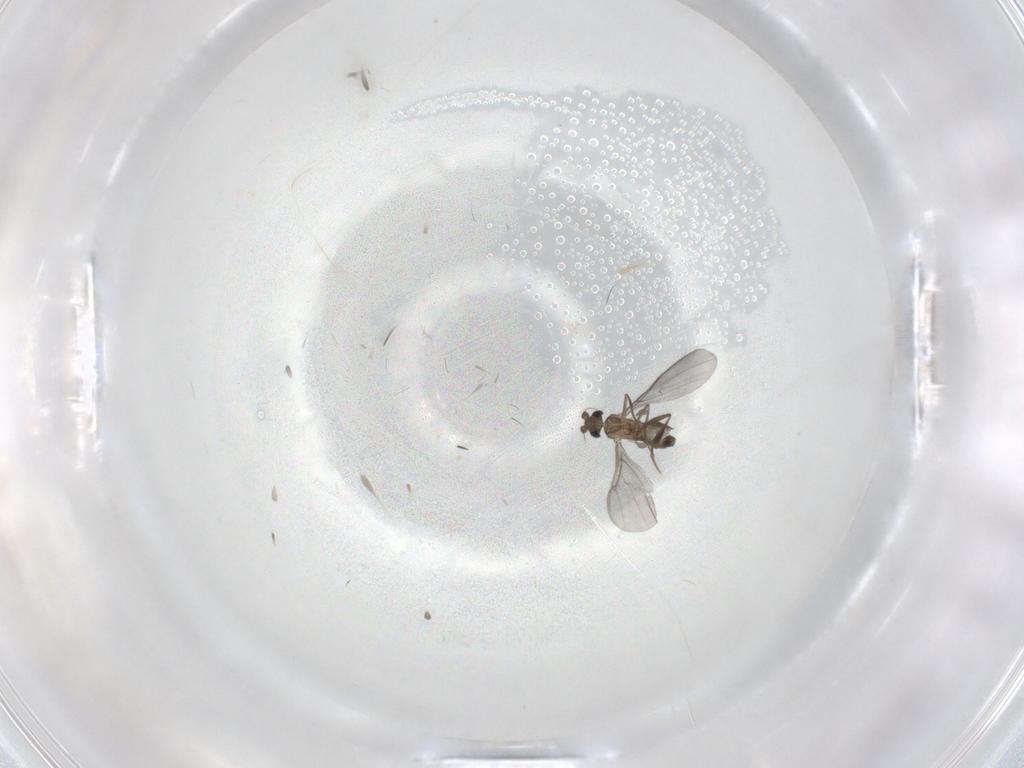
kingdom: Animalia
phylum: Arthropoda
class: Insecta
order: Diptera
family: Phoridae
